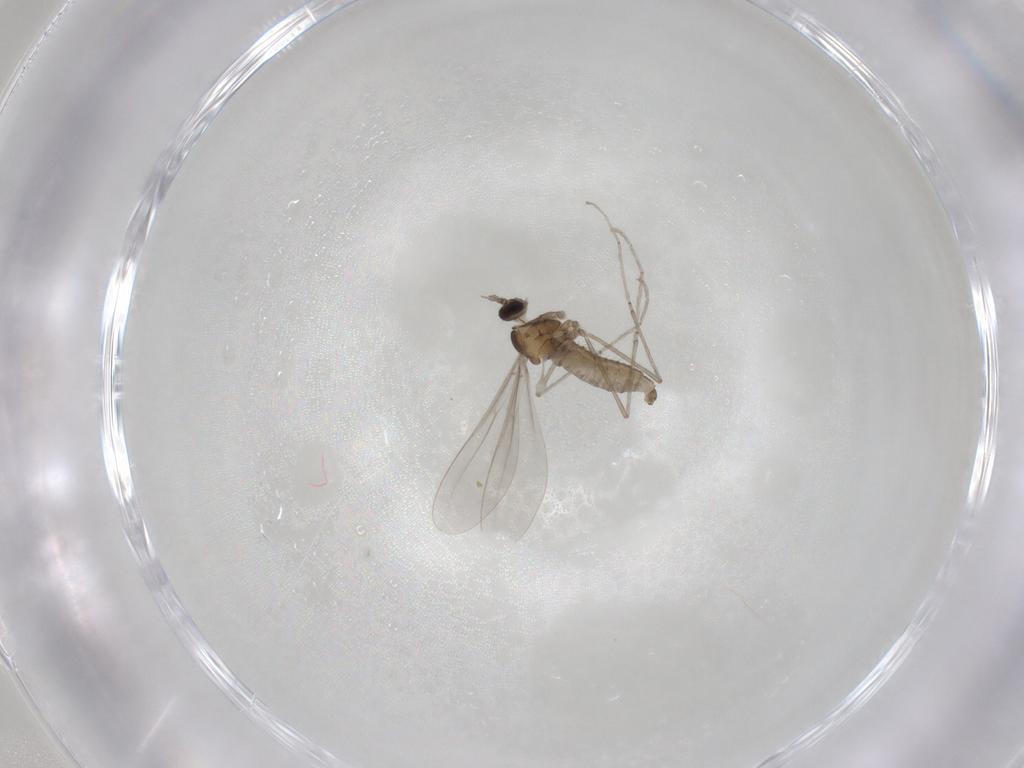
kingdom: Animalia
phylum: Arthropoda
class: Insecta
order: Diptera
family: Cecidomyiidae
